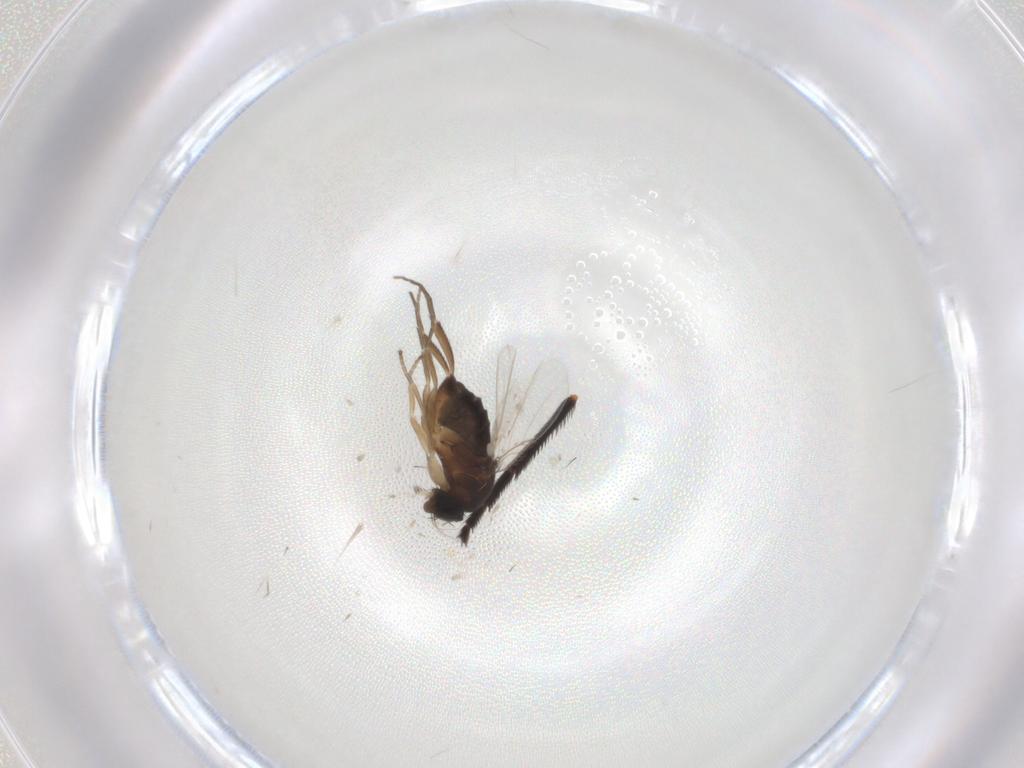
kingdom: Animalia
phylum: Arthropoda
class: Insecta
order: Diptera
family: Muscidae
